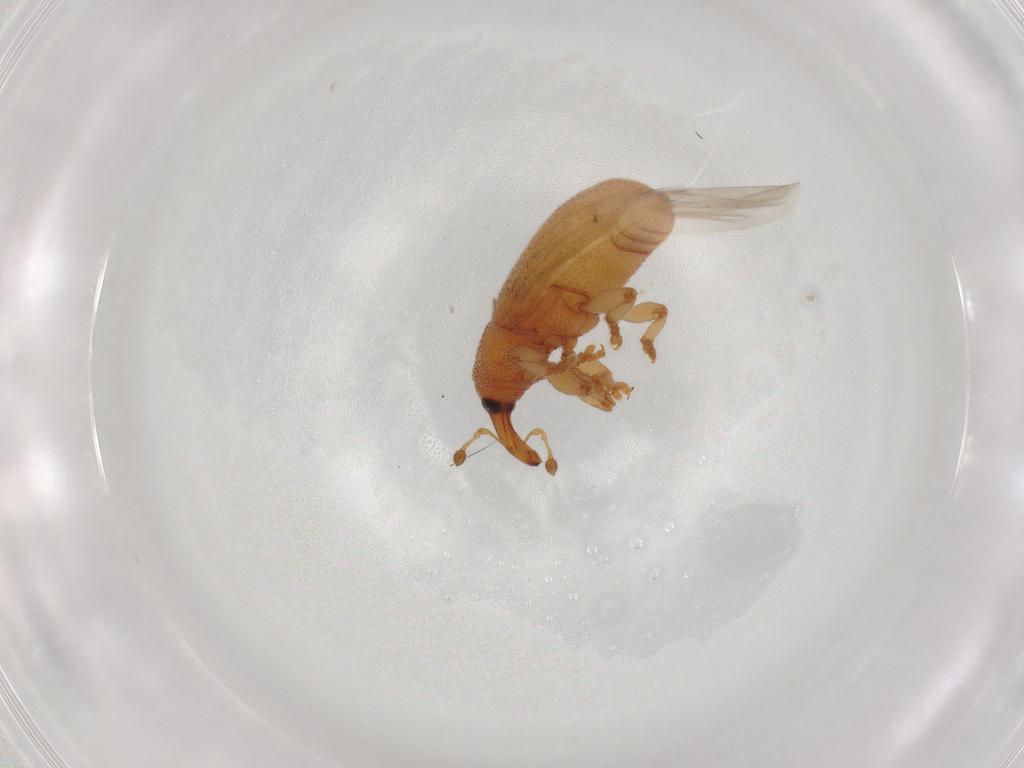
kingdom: Animalia
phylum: Arthropoda
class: Insecta
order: Coleoptera
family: Curculionidae
